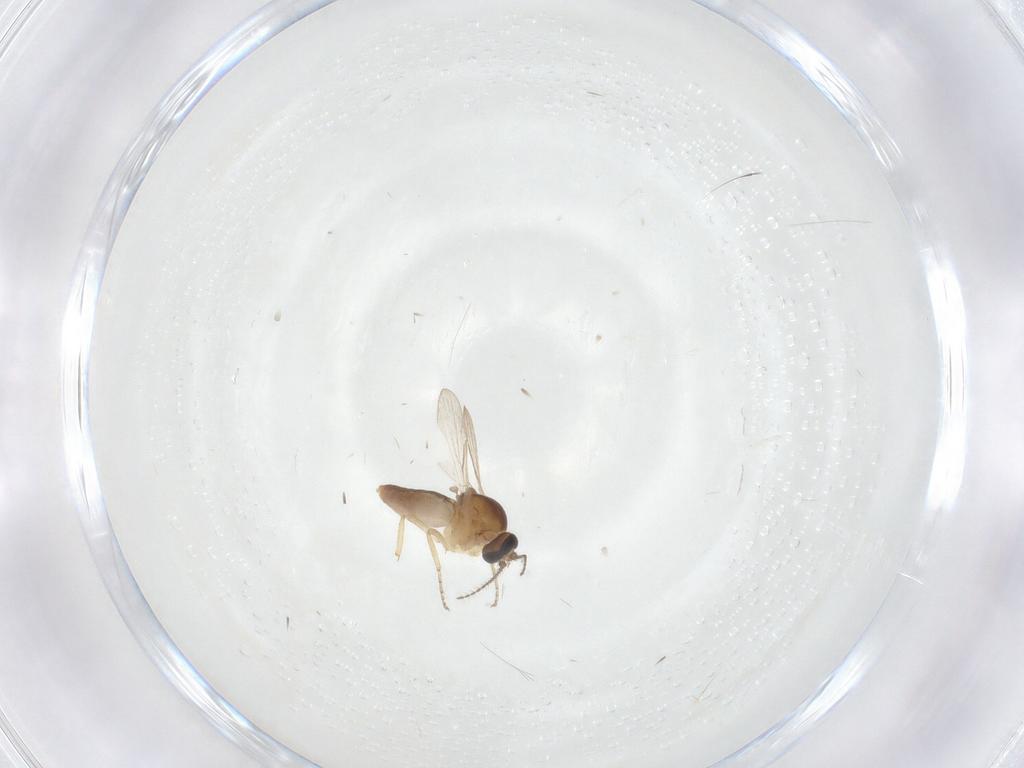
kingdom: Animalia
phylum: Arthropoda
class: Insecta
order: Diptera
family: Ceratopogonidae
